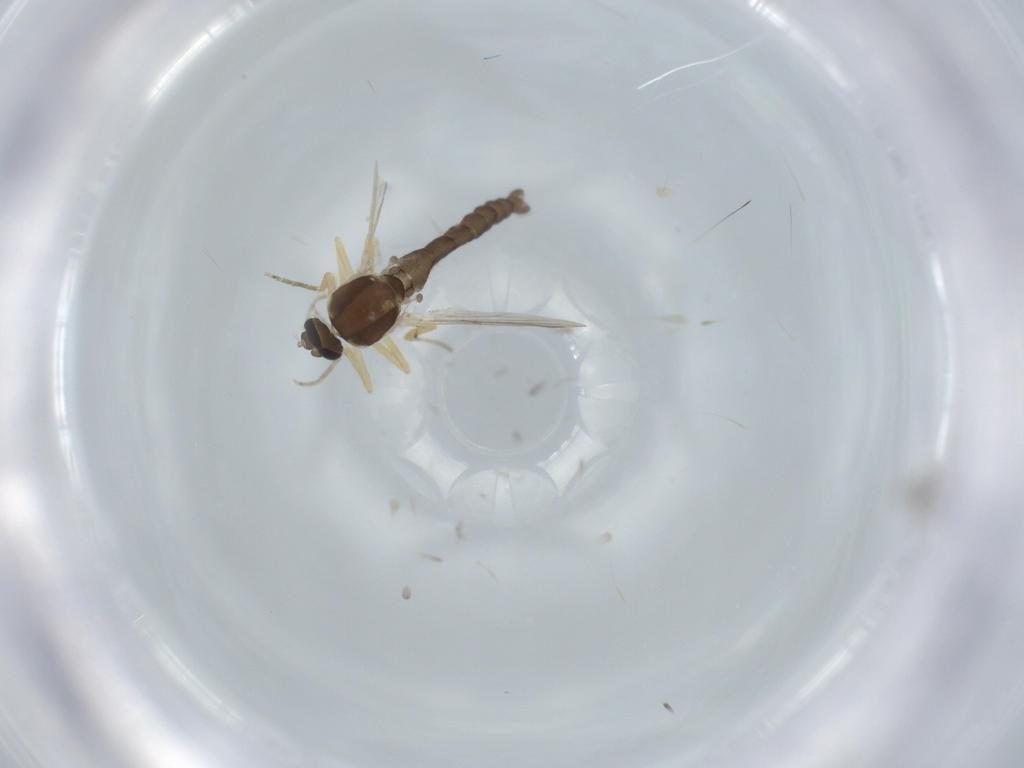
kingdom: Animalia
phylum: Arthropoda
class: Insecta
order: Diptera
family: Ceratopogonidae
